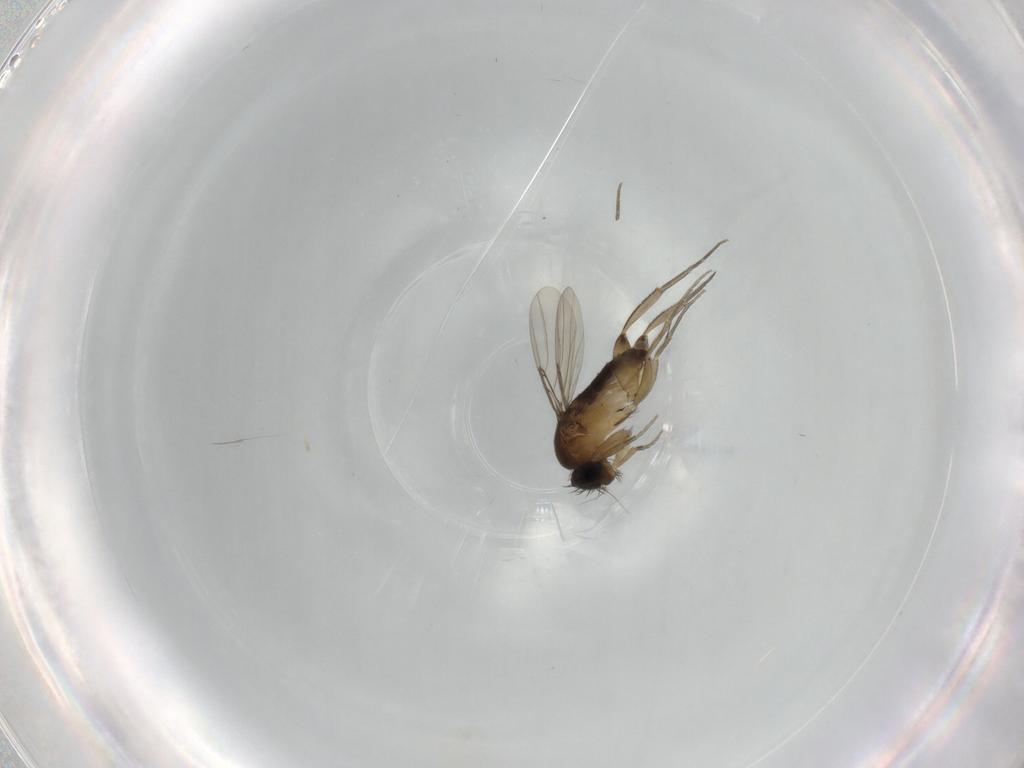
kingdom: Animalia
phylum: Arthropoda
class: Insecta
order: Diptera
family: Phoridae
